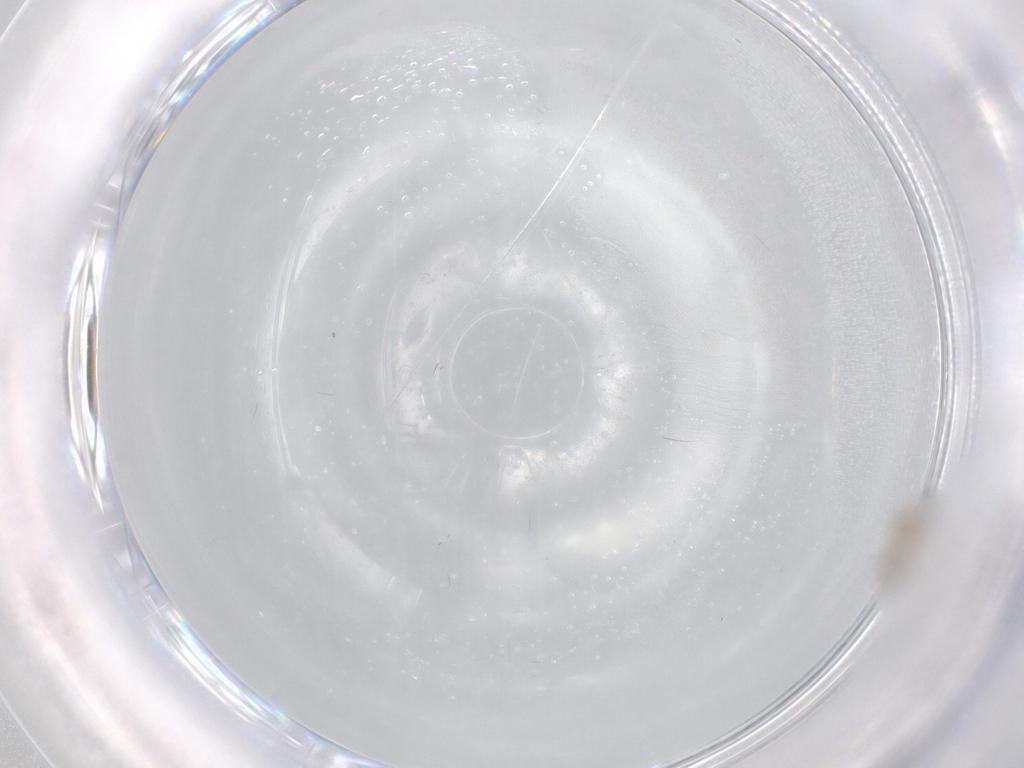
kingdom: Animalia
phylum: Arthropoda
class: Insecta
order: Diptera
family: Cecidomyiidae
